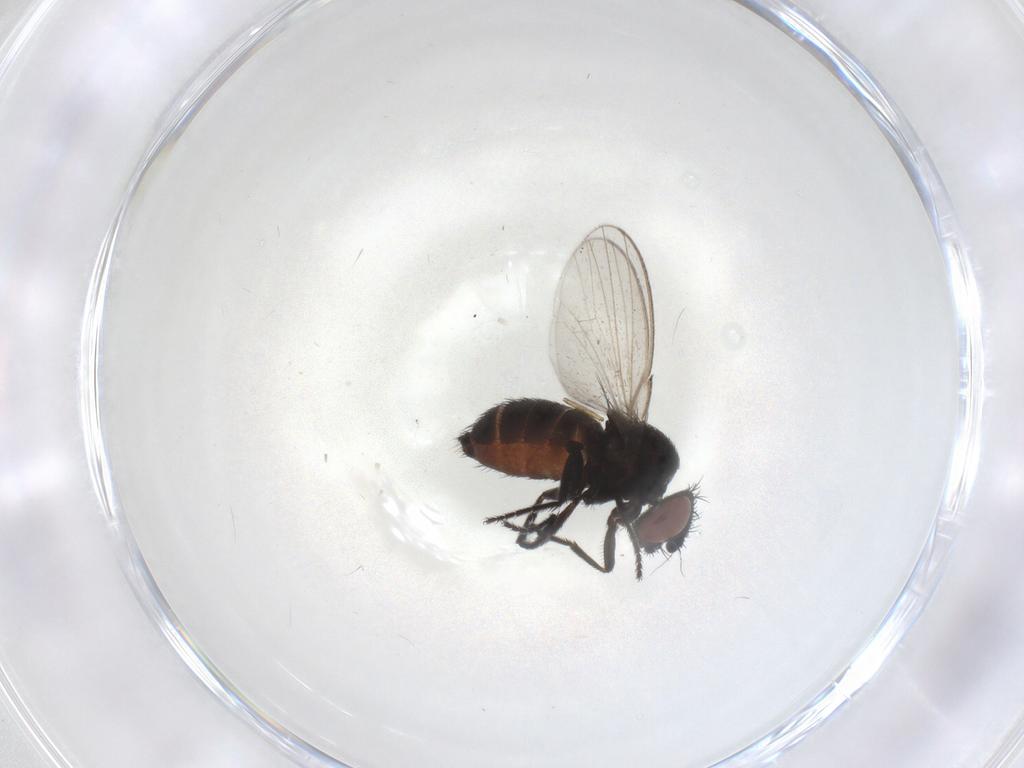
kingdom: Animalia
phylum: Arthropoda
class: Insecta
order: Diptera
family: Milichiidae
